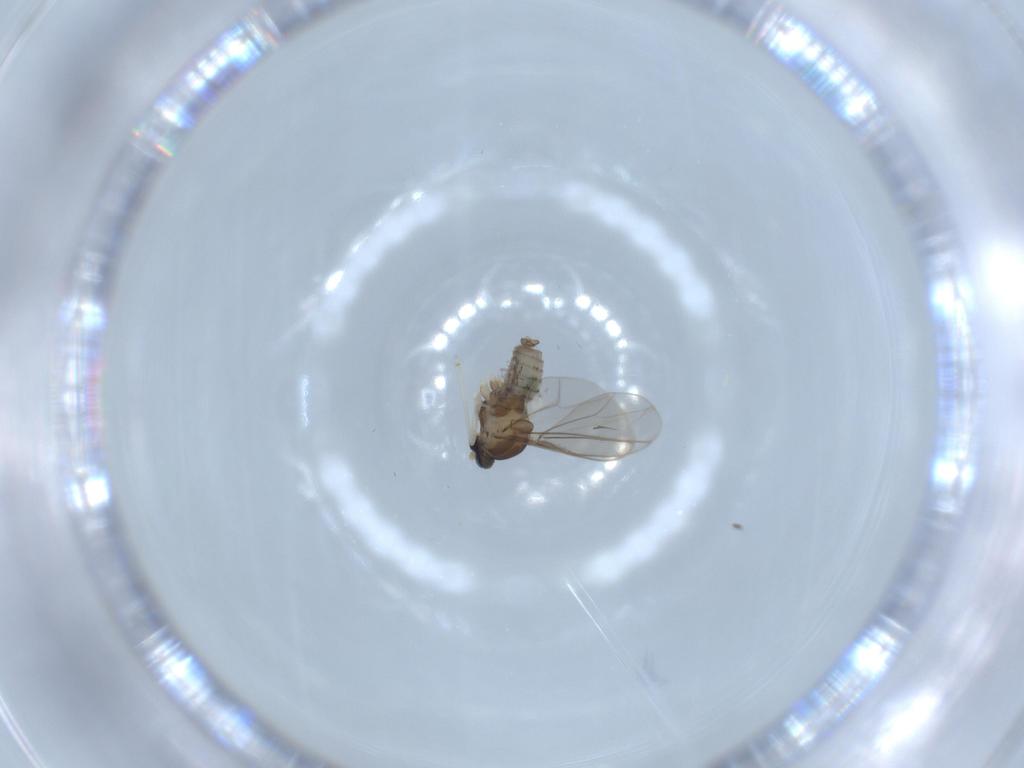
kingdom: Animalia
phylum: Arthropoda
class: Insecta
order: Diptera
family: Cecidomyiidae
